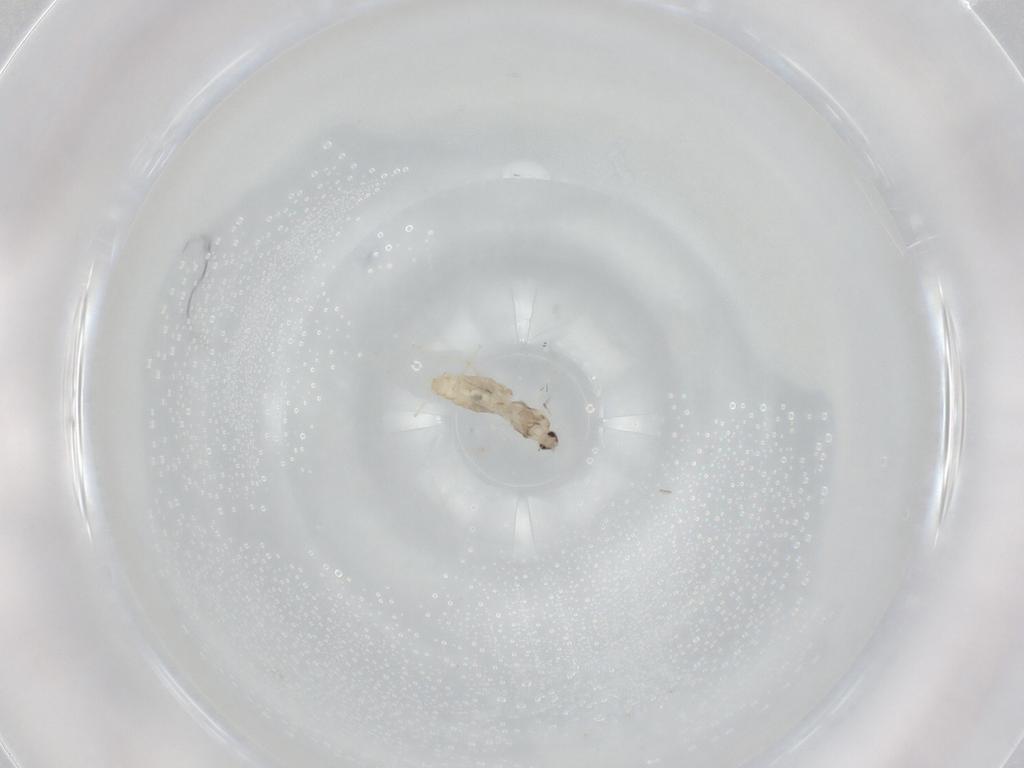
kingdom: Animalia
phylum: Arthropoda
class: Insecta
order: Diptera
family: Cecidomyiidae
